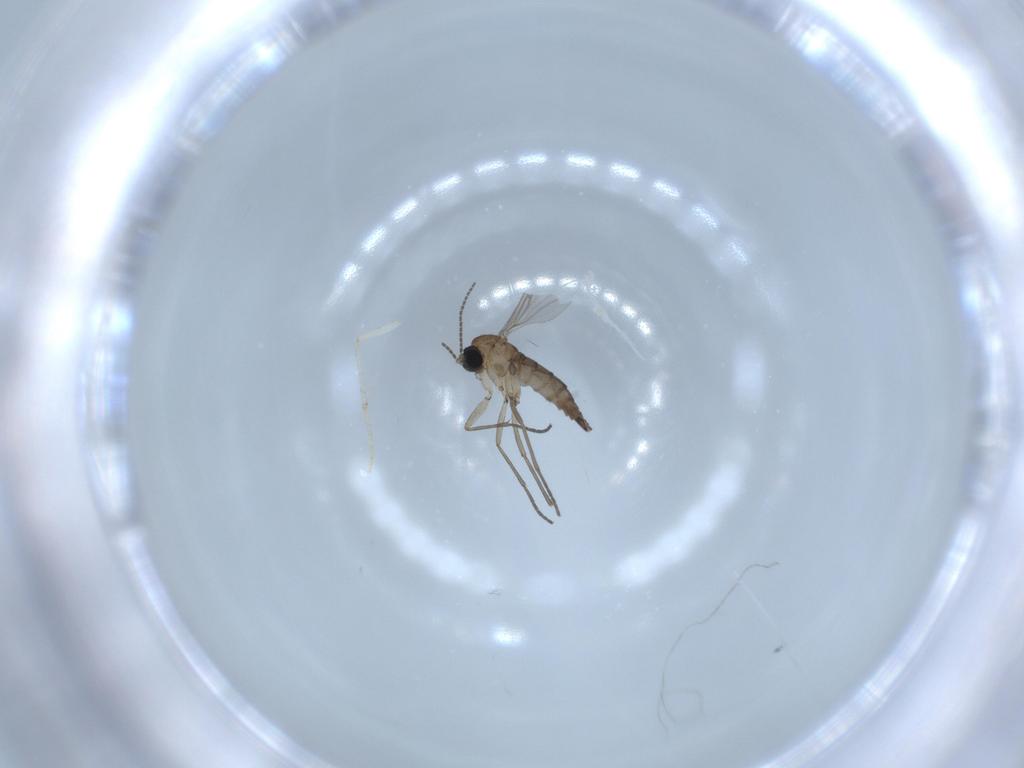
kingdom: Animalia
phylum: Arthropoda
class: Insecta
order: Diptera
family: Sciaridae
